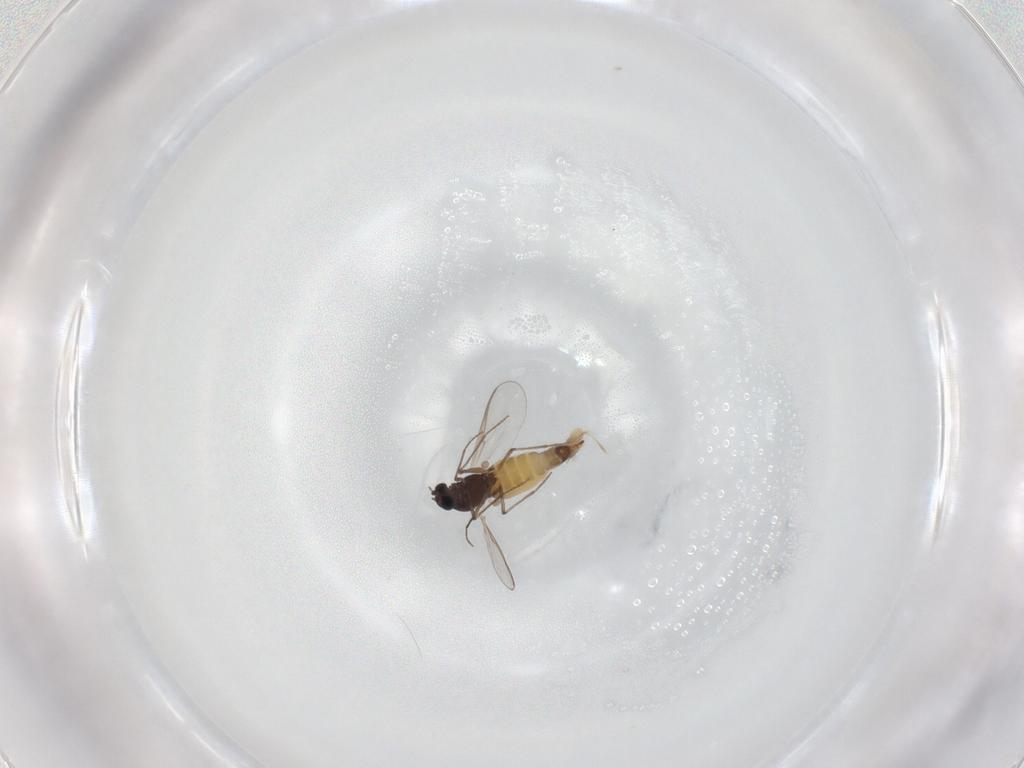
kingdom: Animalia
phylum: Arthropoda
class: Insecta
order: Diptera
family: Chironomidae
